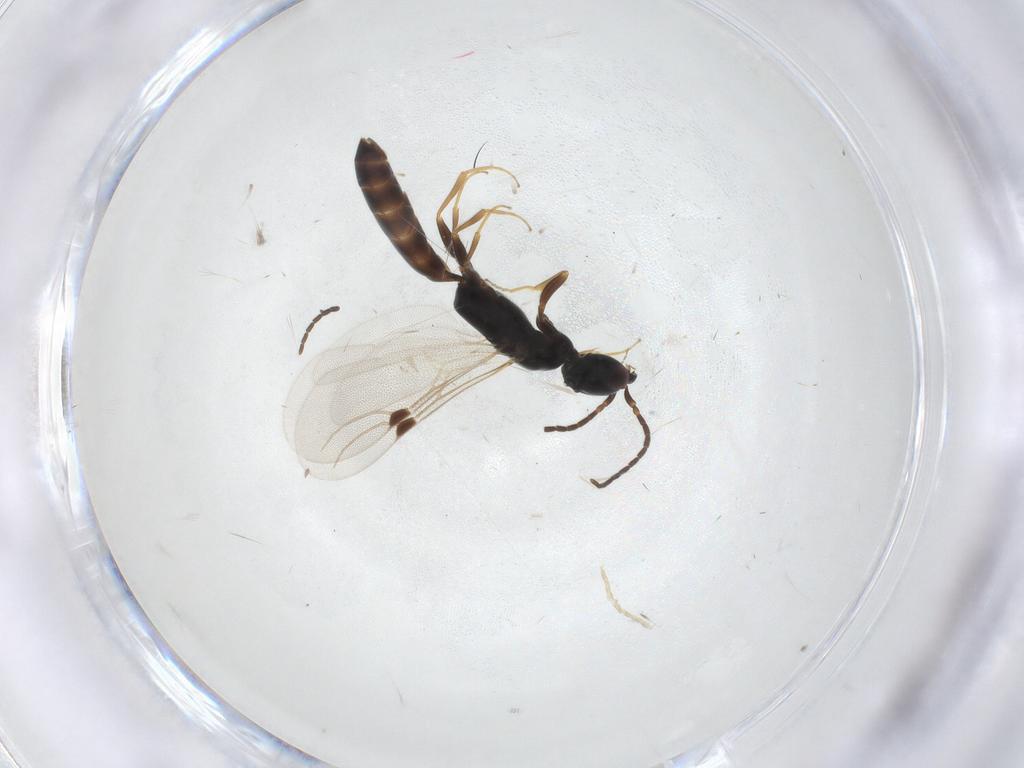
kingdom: Animalia
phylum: Arthropoda
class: Insecta
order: Hymenoptera
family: Bethylidae
